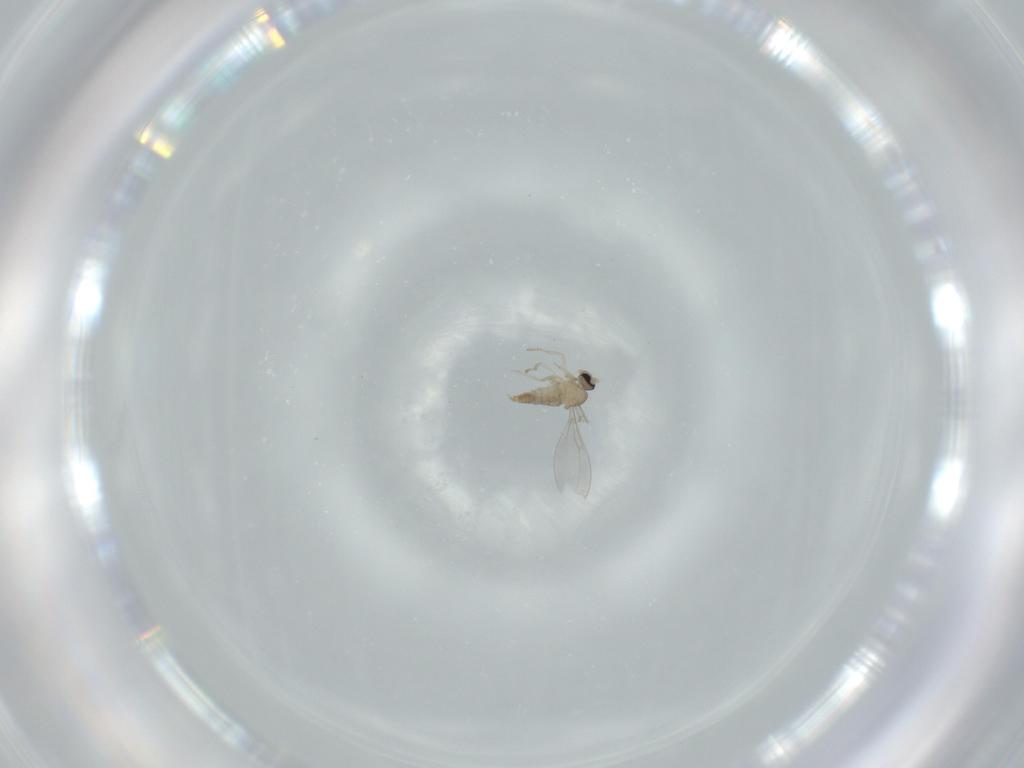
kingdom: Animalia
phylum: Arthropoda
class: Insecta
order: Diptera
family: Cecidomyiidae
